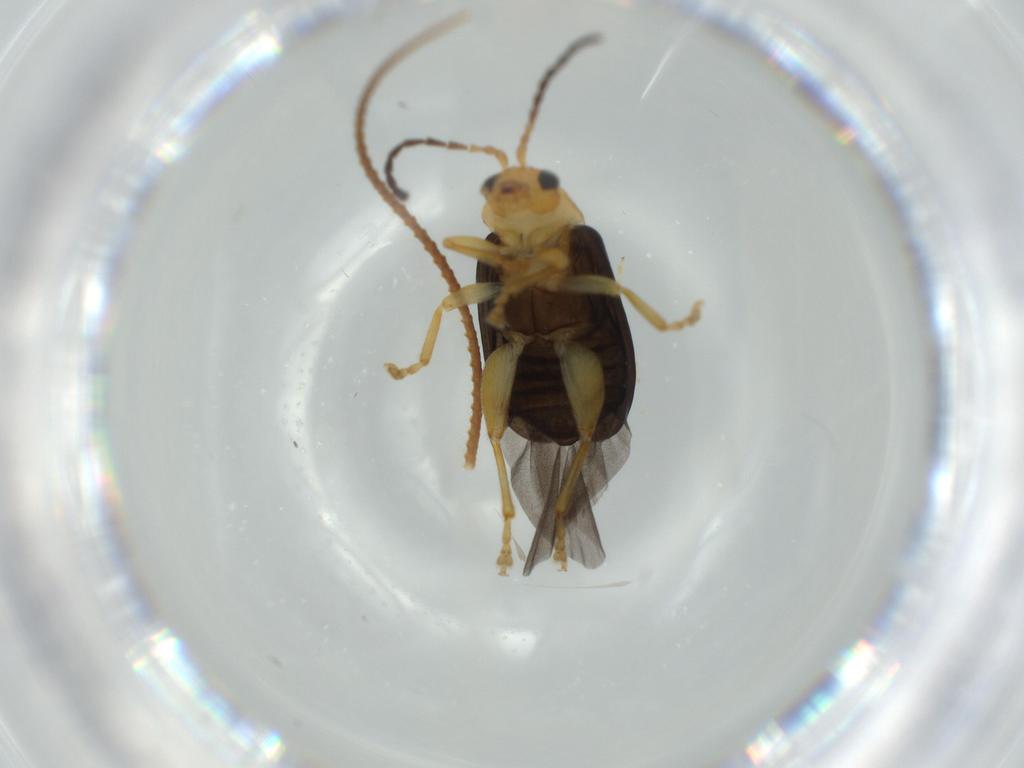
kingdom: Animalia
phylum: Arthropoda
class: Insecta
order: Coleoptera
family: Chrysomelidae
